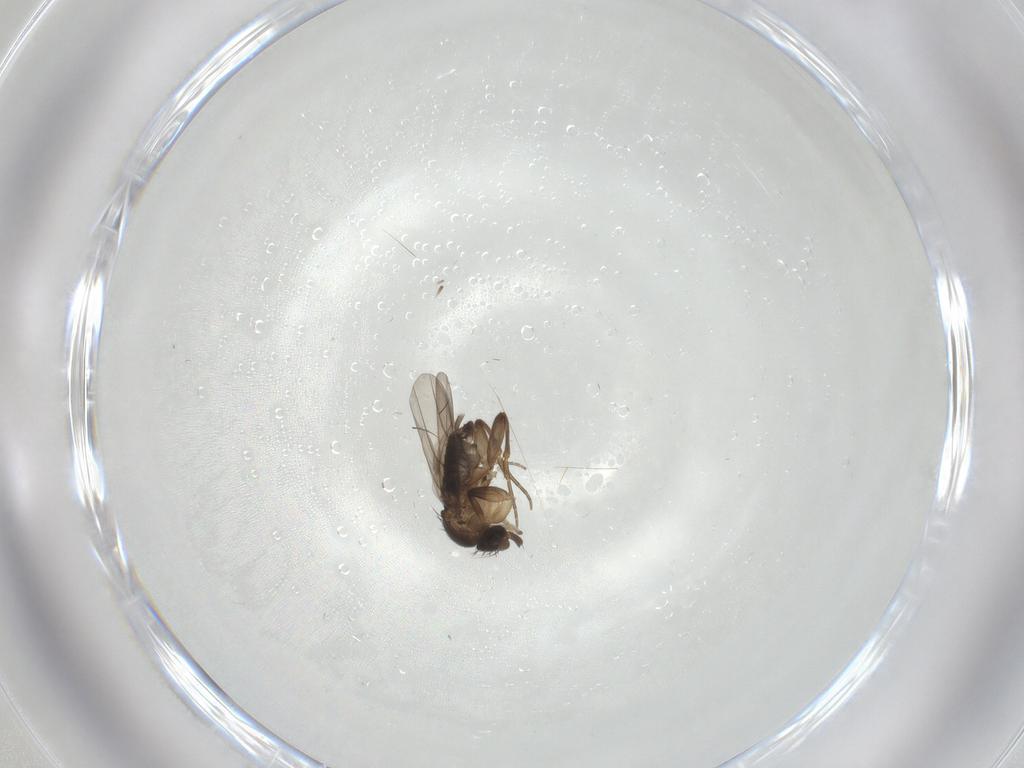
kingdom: Animalia
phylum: Arthropoda
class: Insecta
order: Diptera
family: Phoridae
